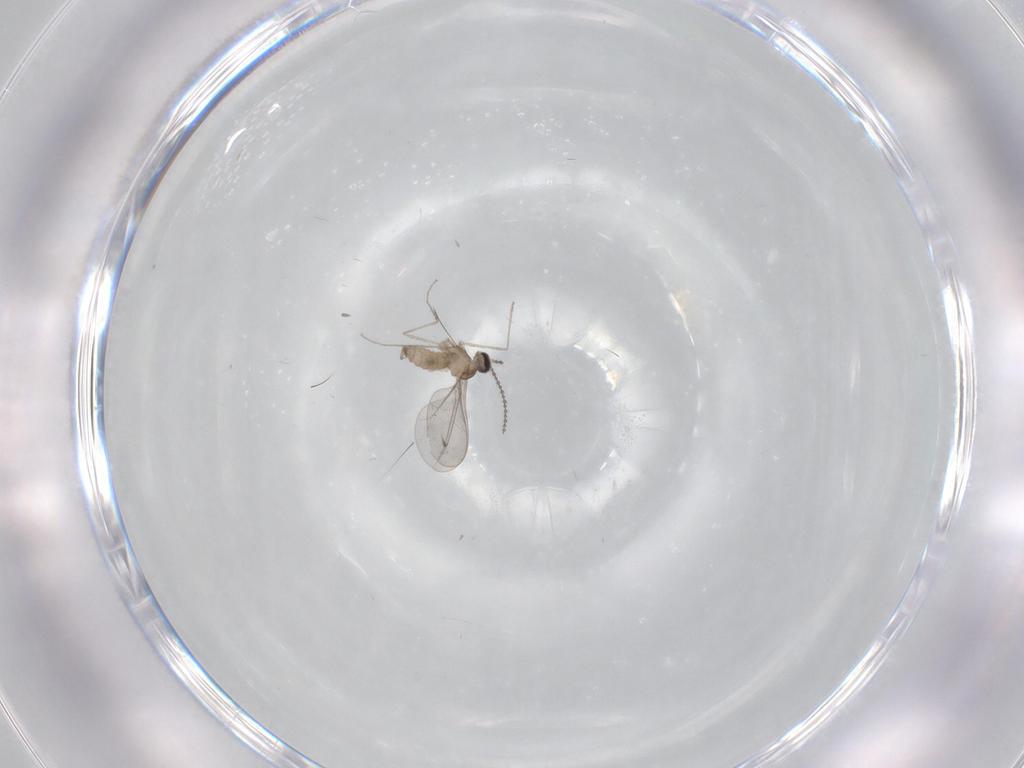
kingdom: Animalia
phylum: Arthropoda
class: Insecta
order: Diptera
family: Cecidomyiidae
